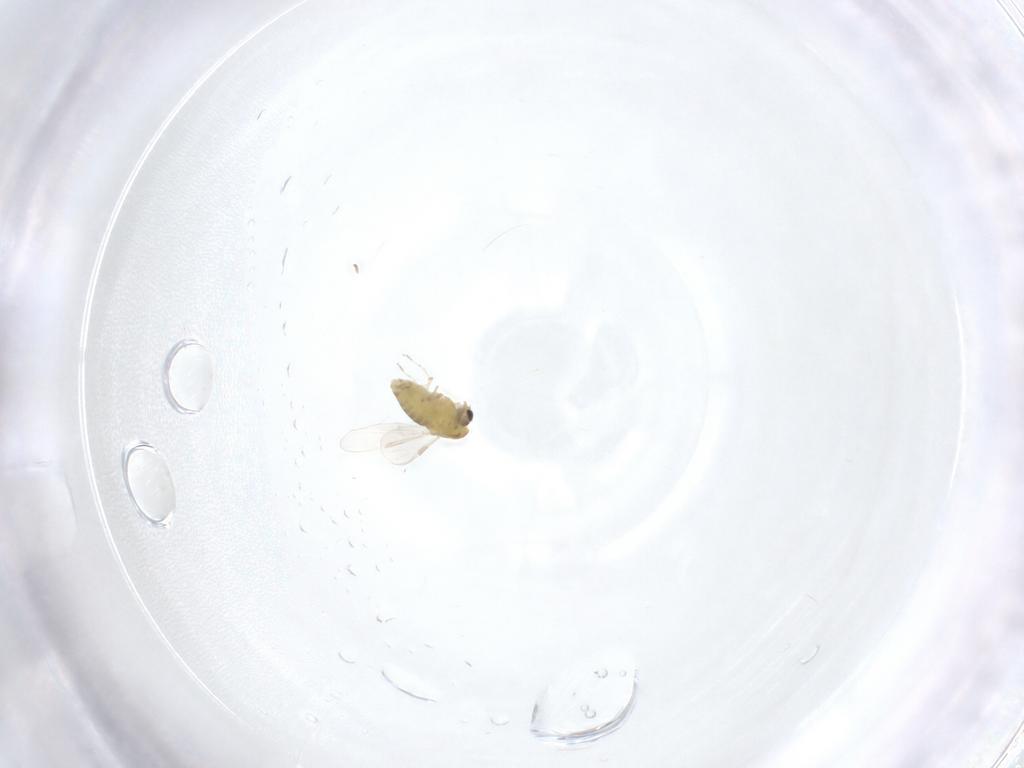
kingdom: Animalia
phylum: Arthropoda
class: Insecta
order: Diptera
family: Chironomidae
